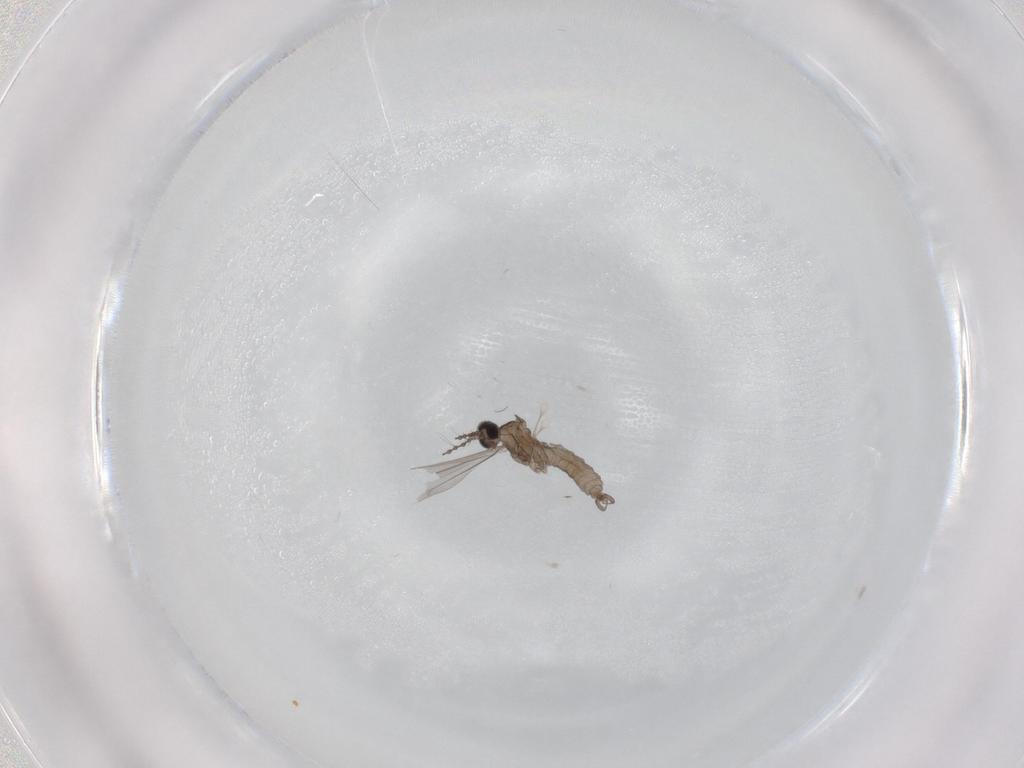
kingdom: Animalia
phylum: Arthropoda
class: Insecta
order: Diptera
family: Cecidomyiidae
